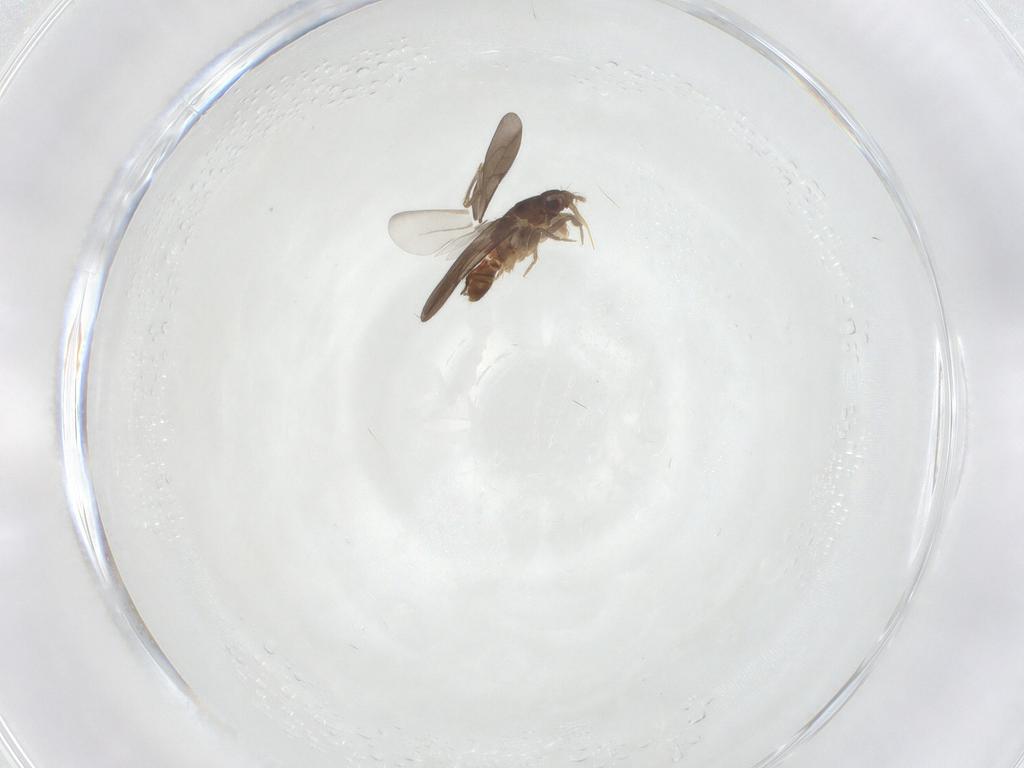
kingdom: Animalia
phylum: Arthropoda
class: Insecta
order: Hemiptera
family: Ceratocombidae
